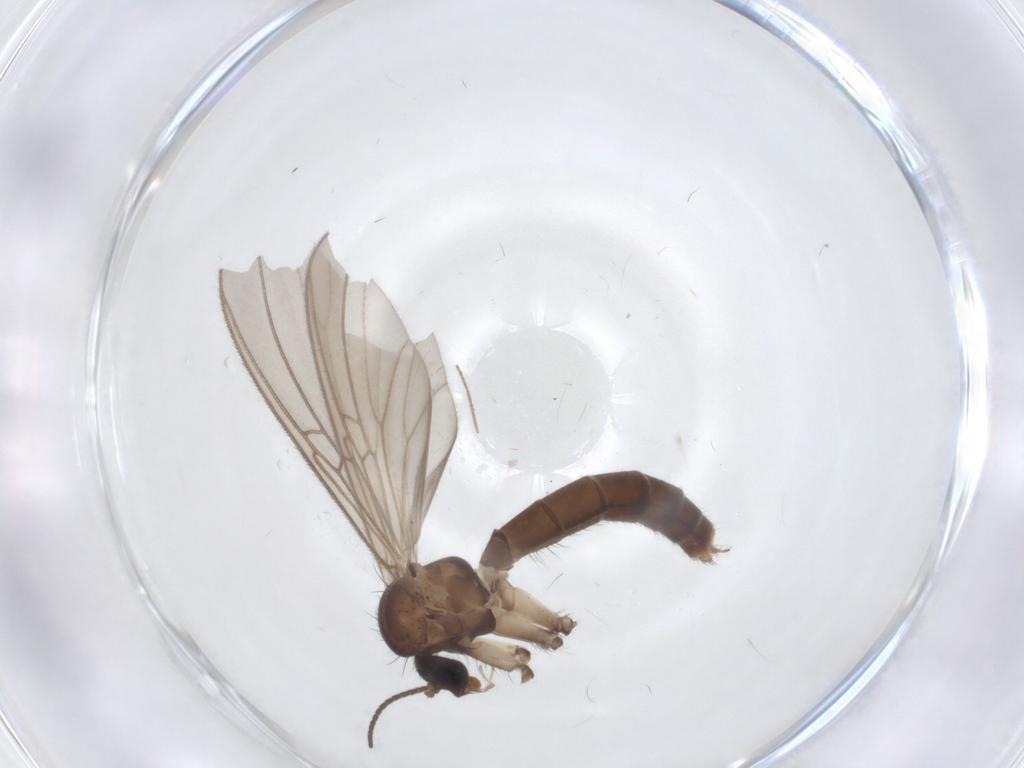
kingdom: Animalia
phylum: Arthropoda
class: Insecta
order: Diptera
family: Mycetophilidae
